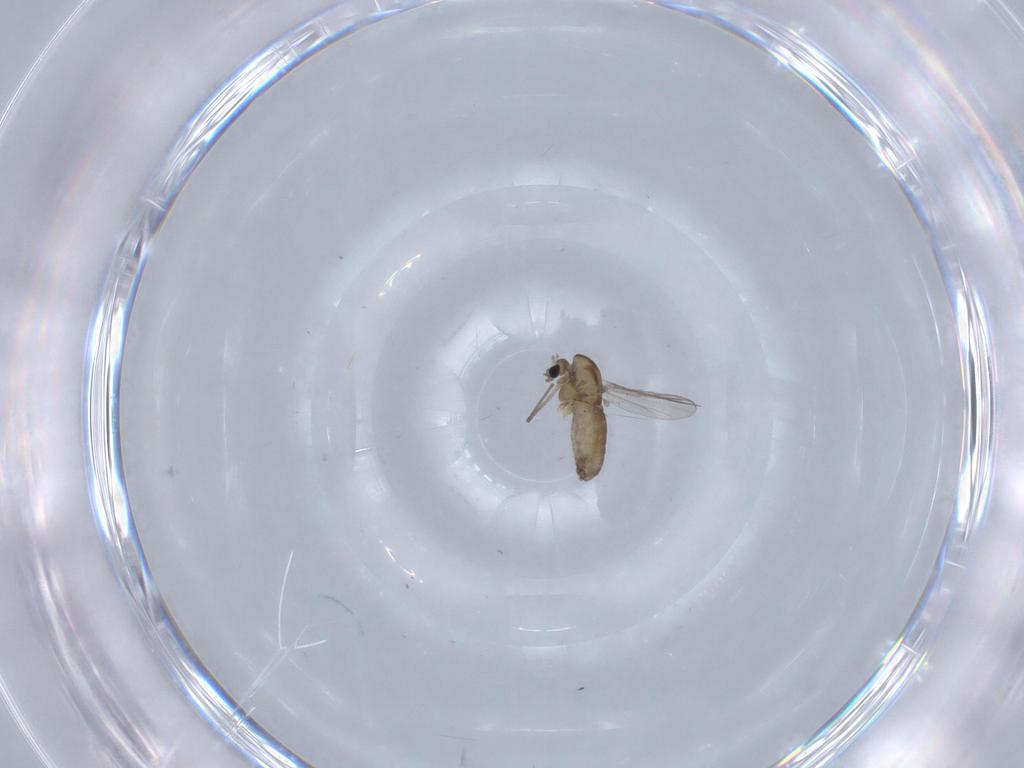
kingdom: Animalia
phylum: Arthropoda
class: Insecta
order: Diptera
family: Chironomidae
